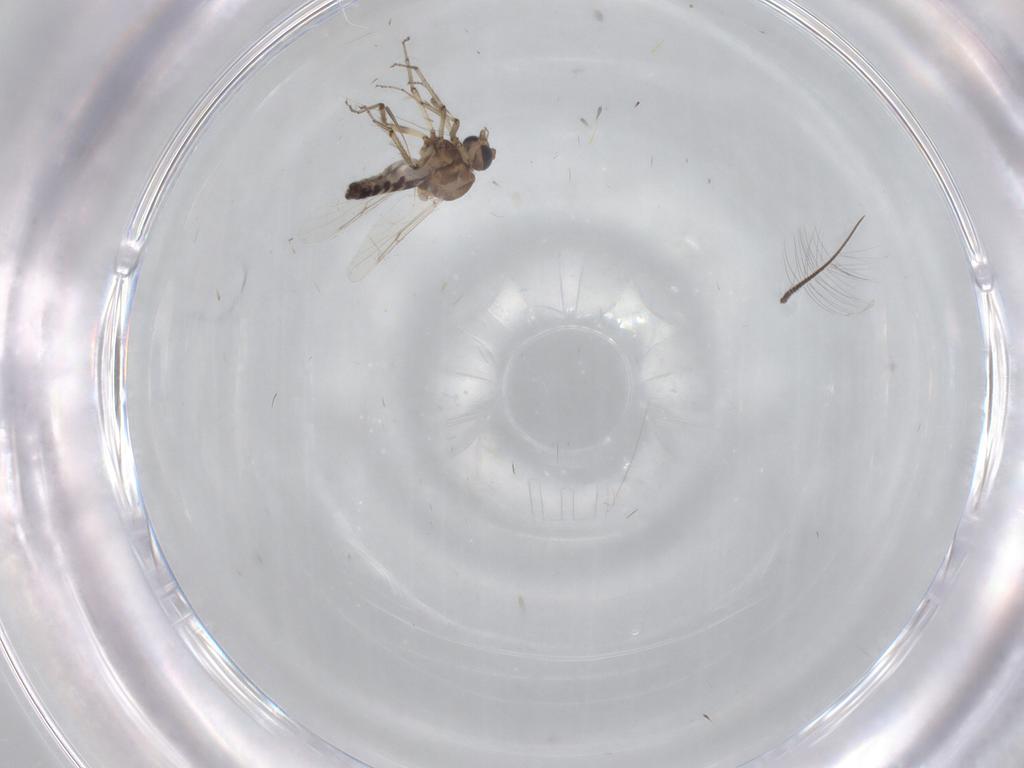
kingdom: Animalia
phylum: Arthropoda
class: Insecta
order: Diptera
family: Ceratopogonidae
